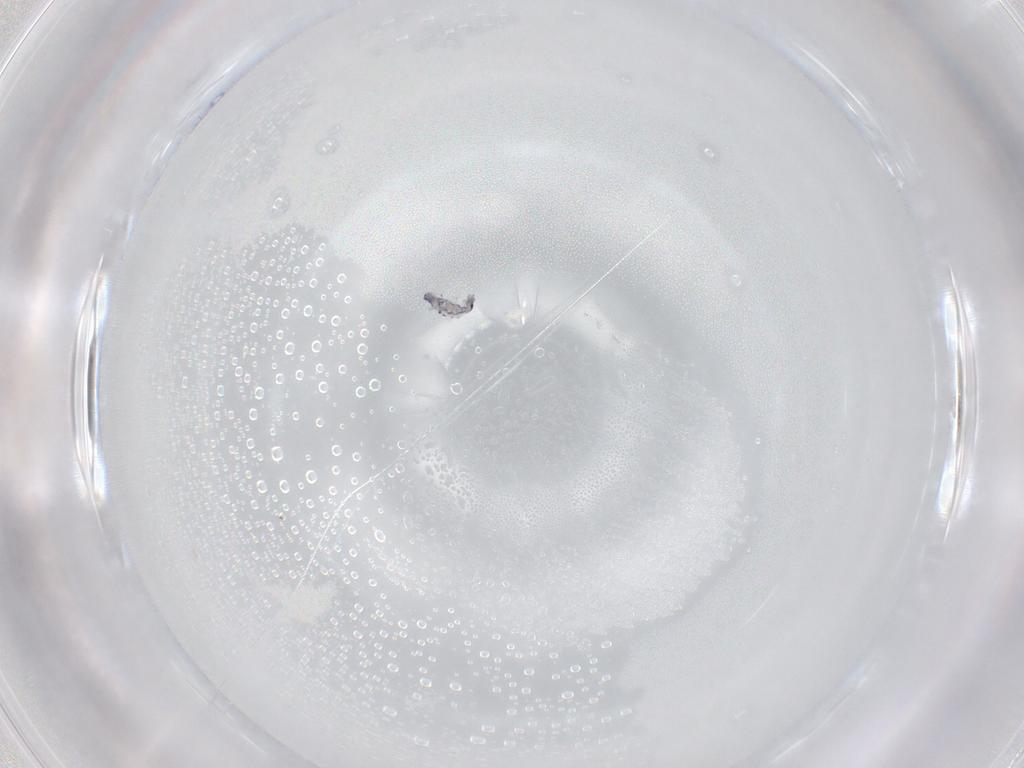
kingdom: Animalia
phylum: Arthropoda
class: Collembola
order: Entomobryomorpha
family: Entomobryidae
